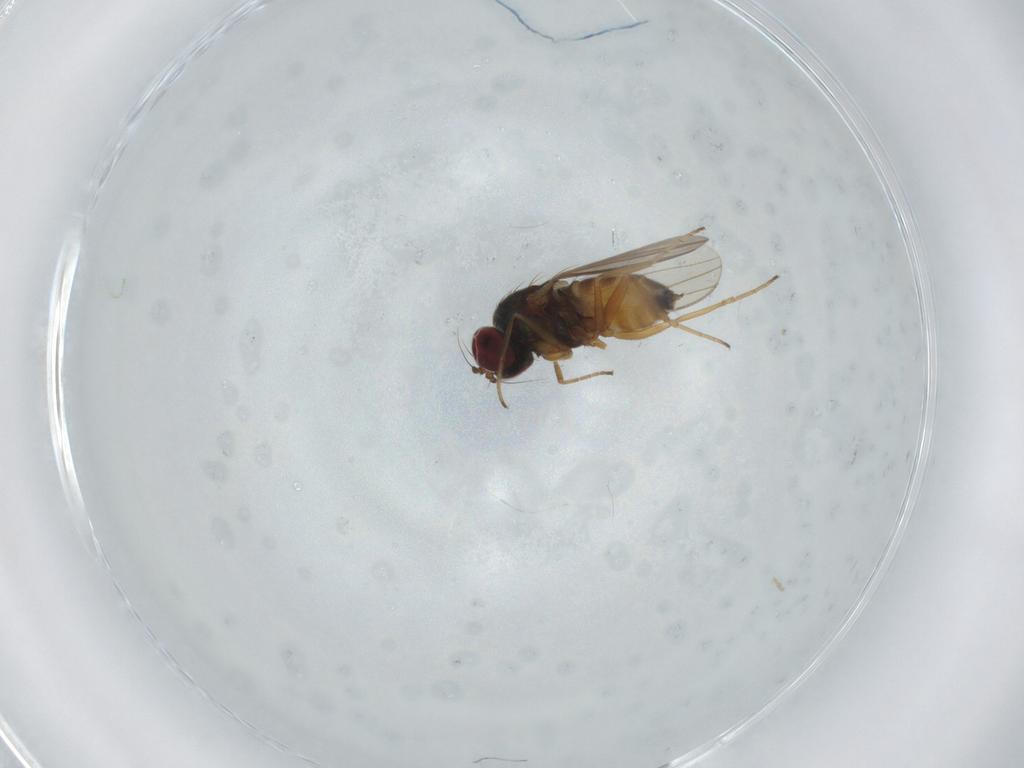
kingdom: Animalia
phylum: Arthropoda
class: Insecta
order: Diptera
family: Dolichopodidae
